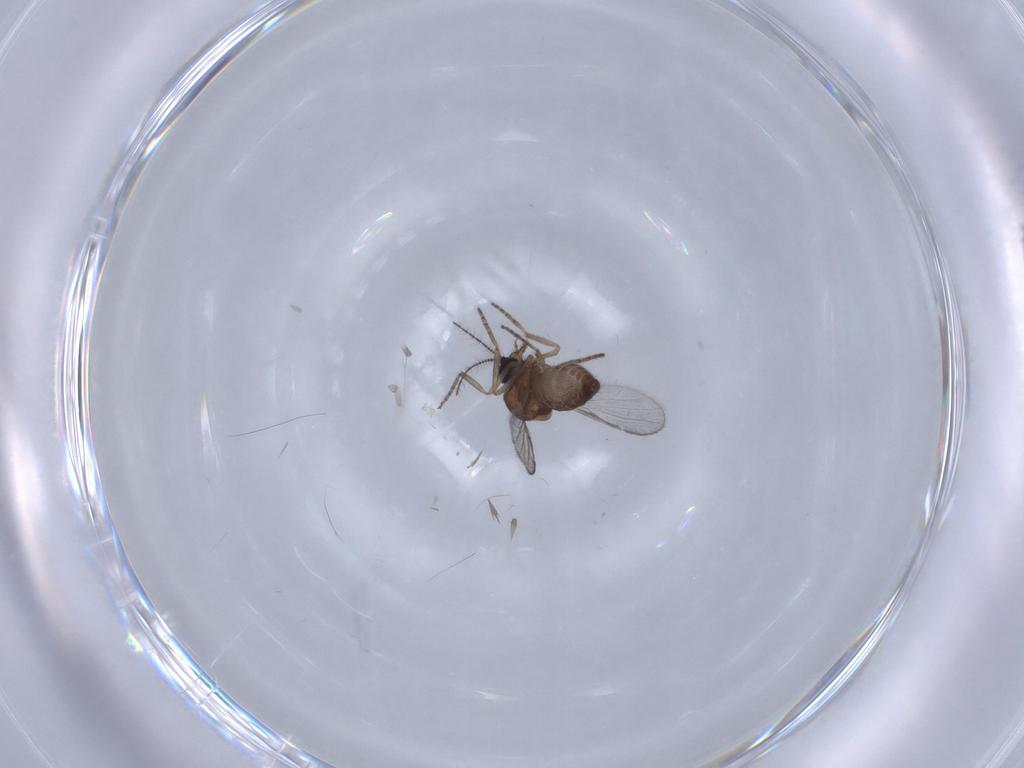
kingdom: Animalia
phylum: Arthropoda
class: Insecta
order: Diptera
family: Chironomidae
